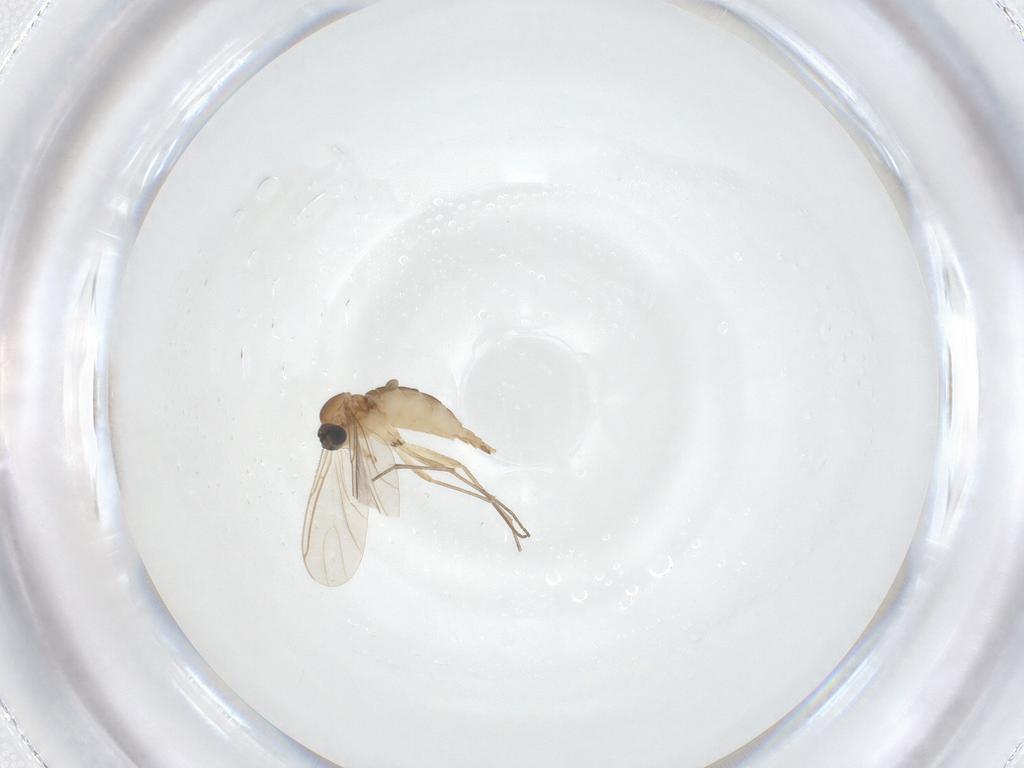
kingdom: Animalia
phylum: Arthropoda
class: Insecta
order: Diptera
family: Sciaridae
